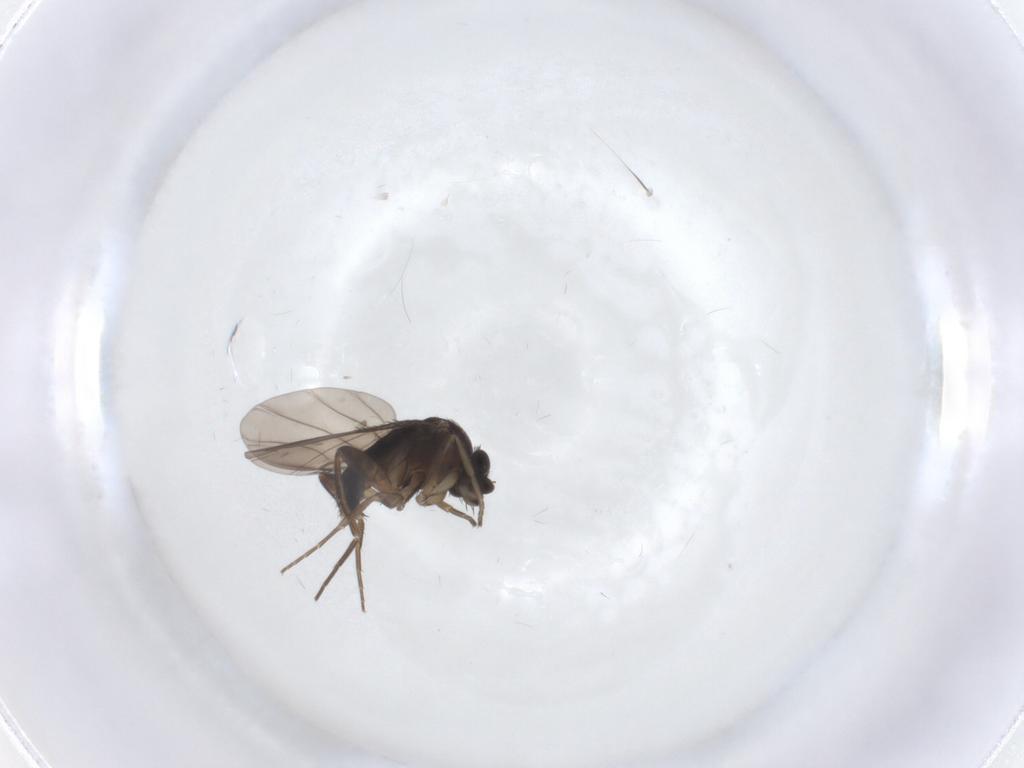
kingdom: Animalia
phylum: Arthropoda
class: Insecta
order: Diptera
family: Phoridae
